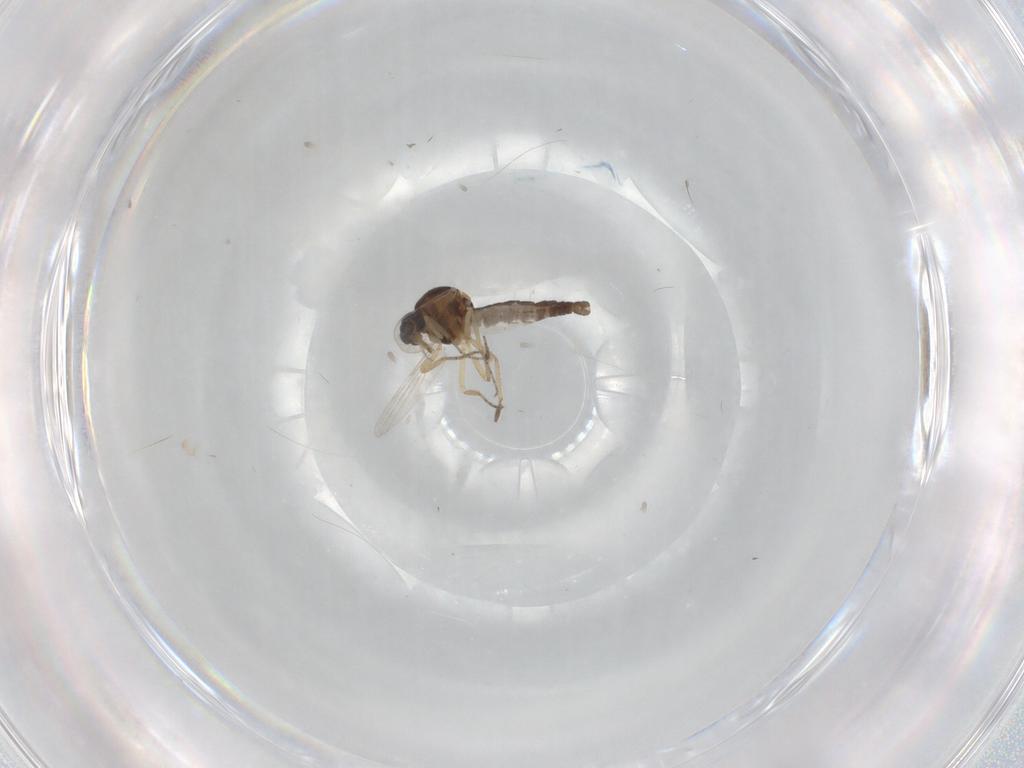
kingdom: Animalia
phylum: Arthropoda
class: Insecta
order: Diptera
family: Ceratopogonidae
